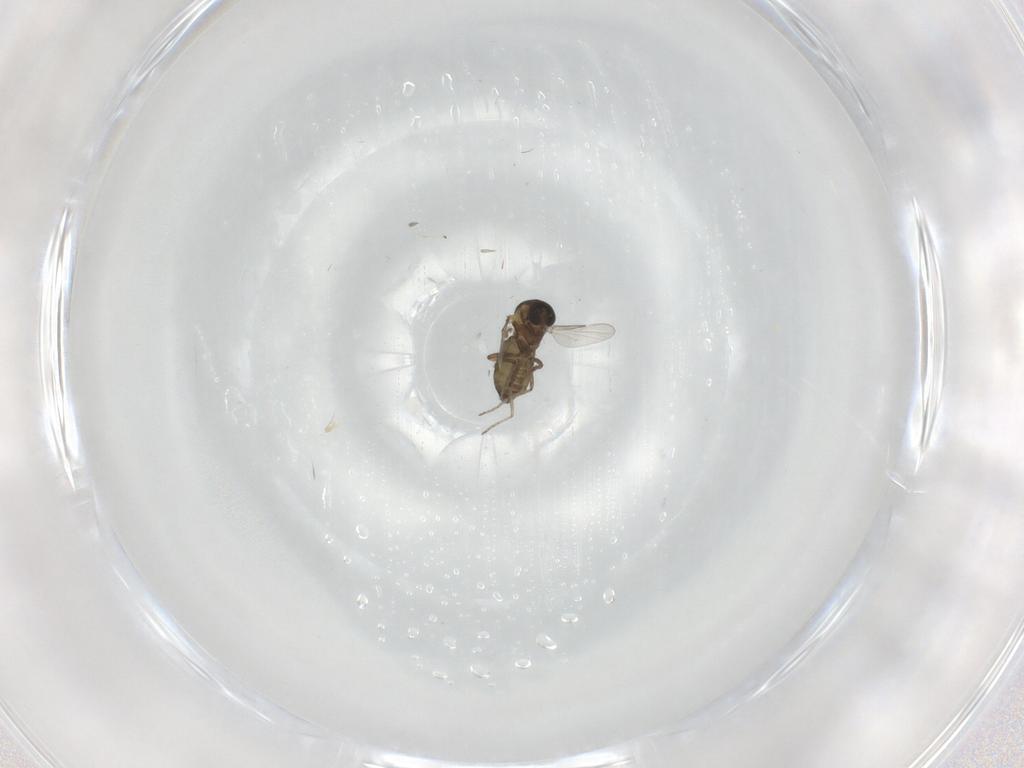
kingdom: Animalia
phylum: Arthropoda
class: Insecta
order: Diptera
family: Ceratopogonidae
